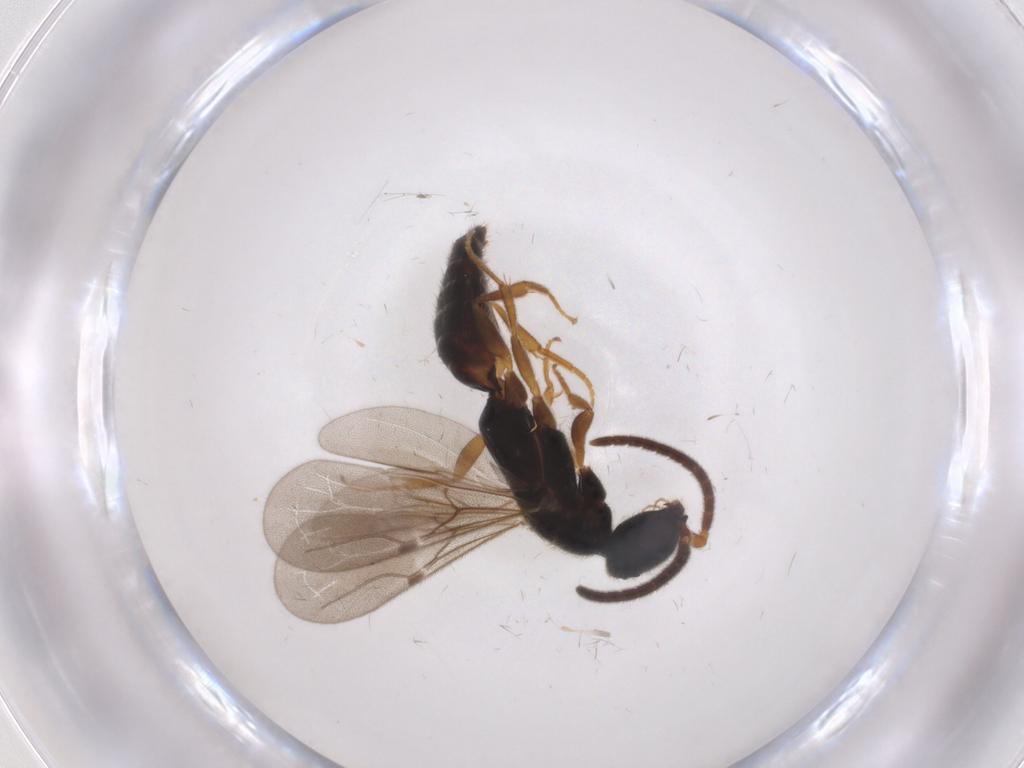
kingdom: Animalia
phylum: Arthropoda
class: Insecta
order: Hymenoptera
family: Bethylidae
